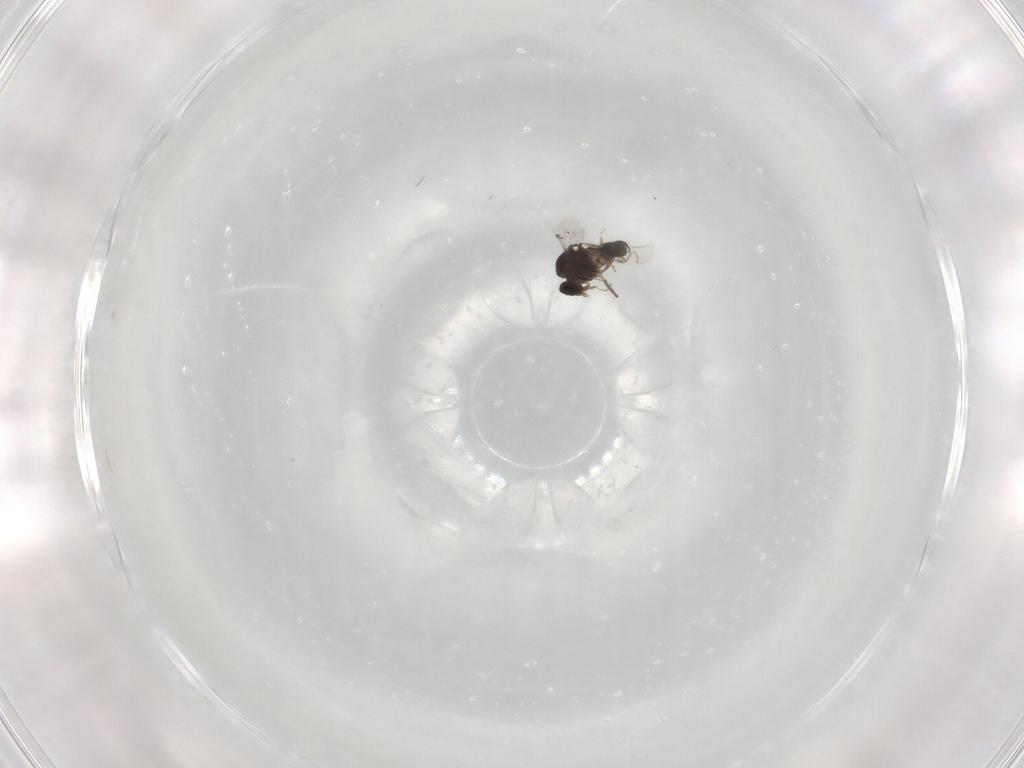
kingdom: Animalia
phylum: Arthropoda
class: Insecta
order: Diptera
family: Ceratopogonidae
